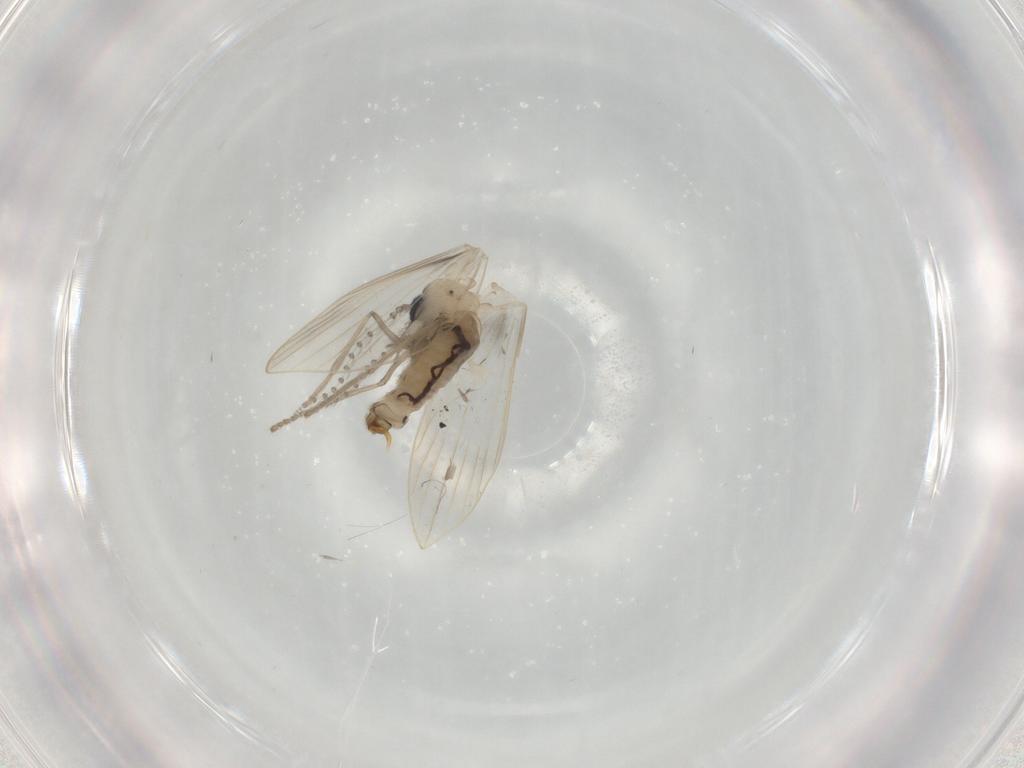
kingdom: Animalia
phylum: Arthropoda
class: Insecta
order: Diptera
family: Psychodidae
